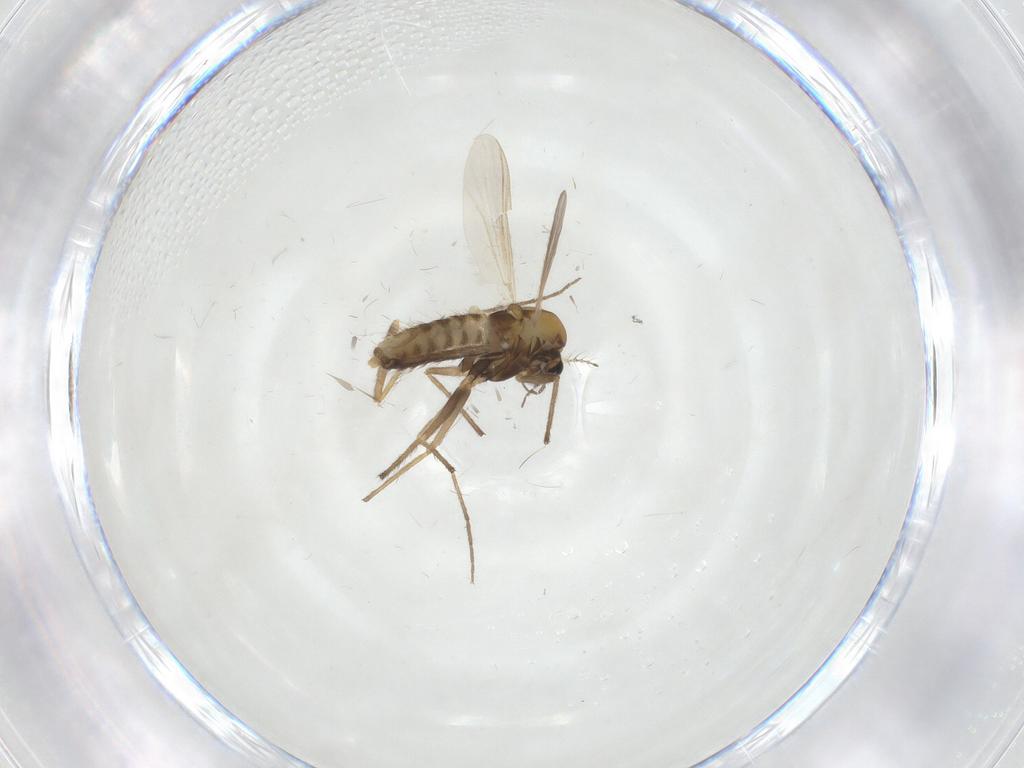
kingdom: Animalia
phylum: Arthropoda
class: Insecta
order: Diptera
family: Chironomidae
